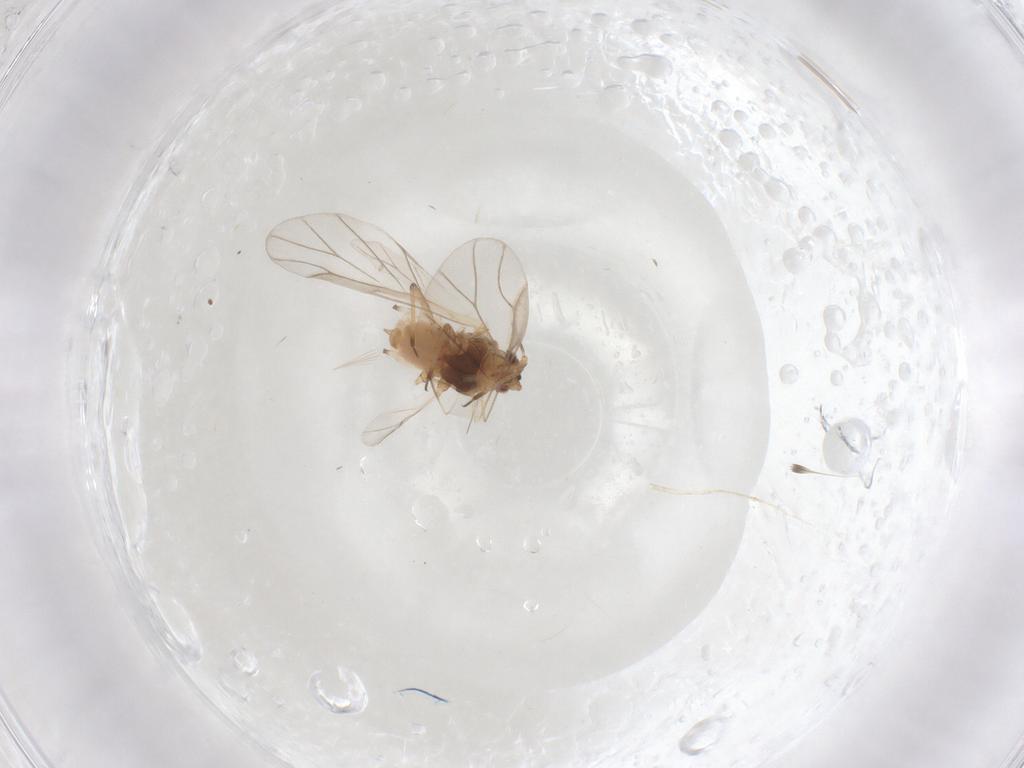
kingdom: Animalia
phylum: Arthropoda
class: Insecta
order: Hemiptera
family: Aphididae
